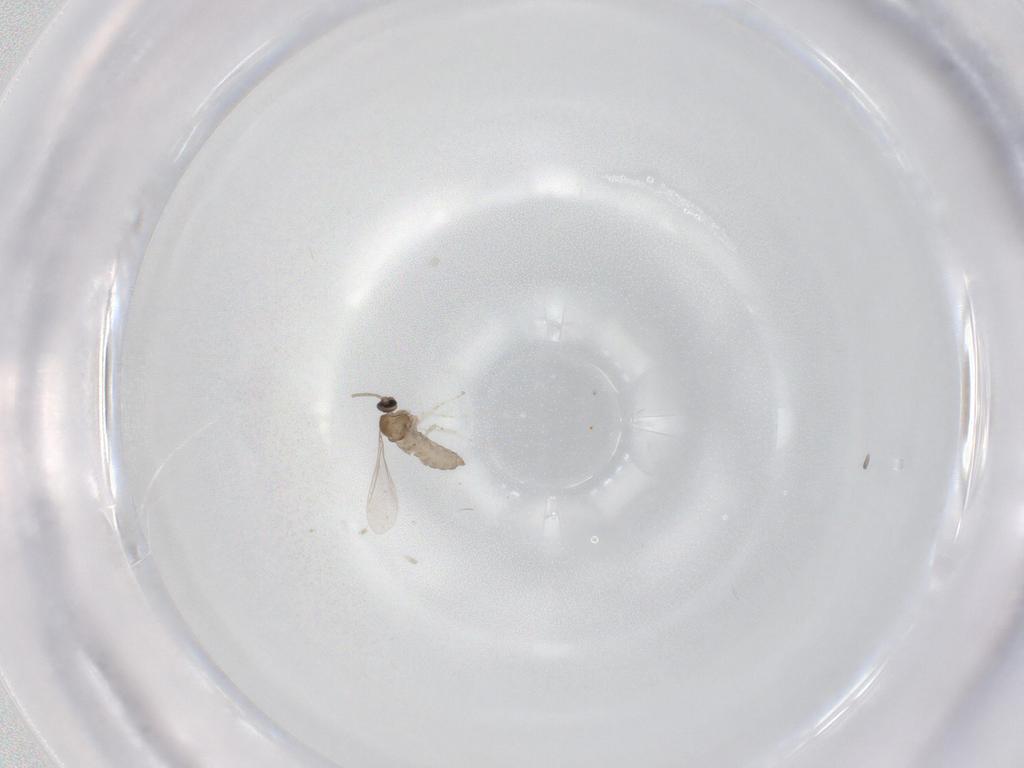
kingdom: Animalia
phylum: Arthropoda
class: Insecta
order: Diptera
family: Cecidomyiidae
